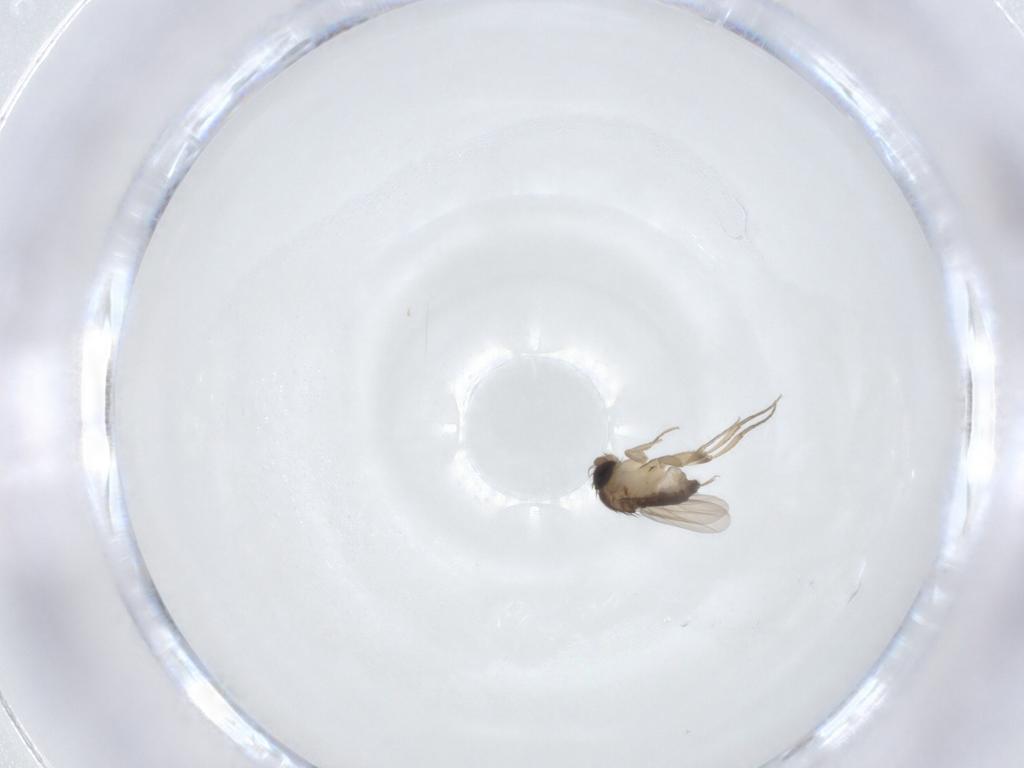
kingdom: Animalia
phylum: Arthropoda
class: Insecta
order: Diptera
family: Phoridae
